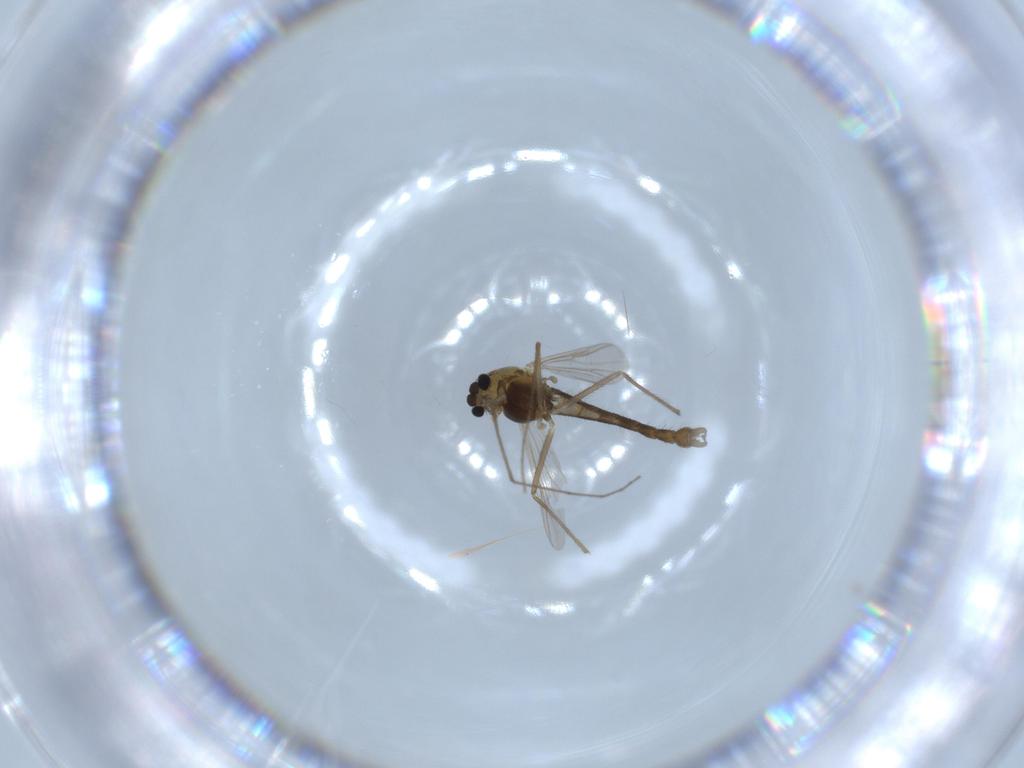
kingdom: Animalia
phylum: Arthropoda
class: Insecta
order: Diptera
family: Chironomidae
